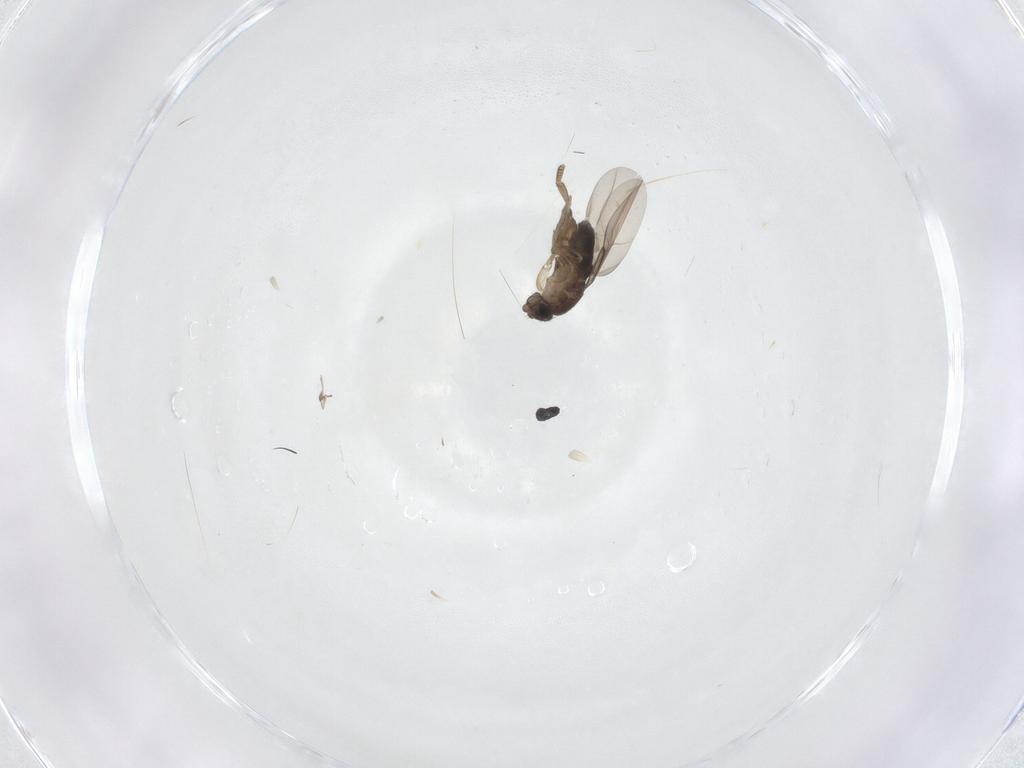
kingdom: Animalia
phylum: Arthropoda
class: Insecta
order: Diptera
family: Phoridae
